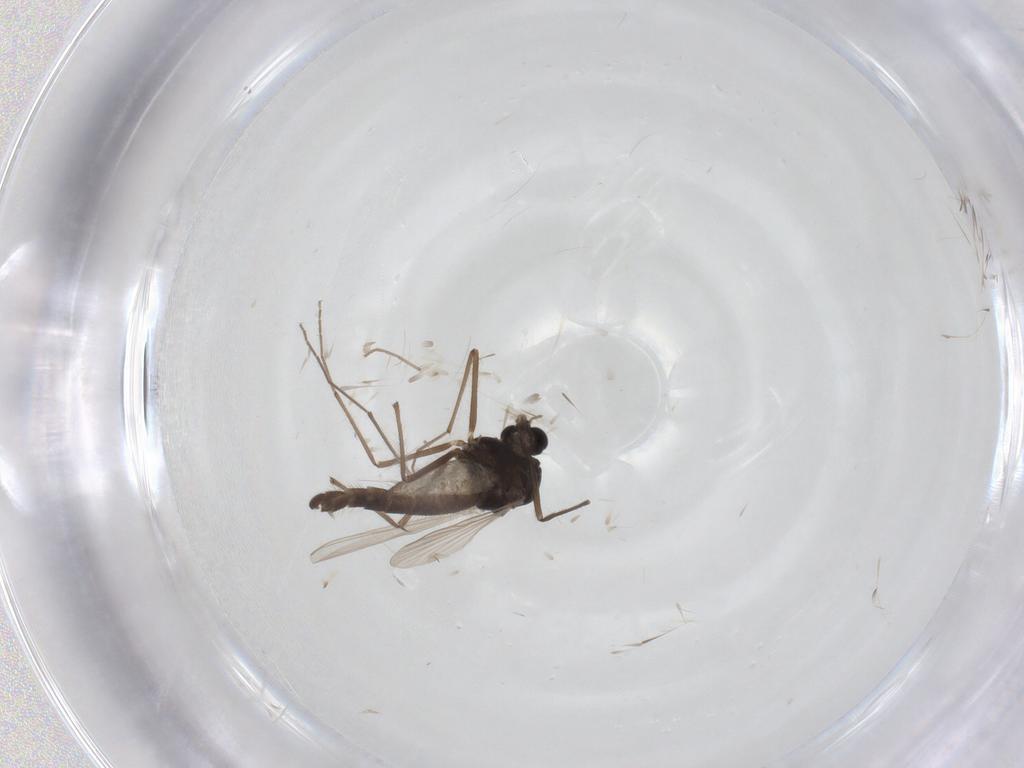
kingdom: Animalia
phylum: Arthropoda
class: Insecta
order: Diptera
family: Chironomidae
